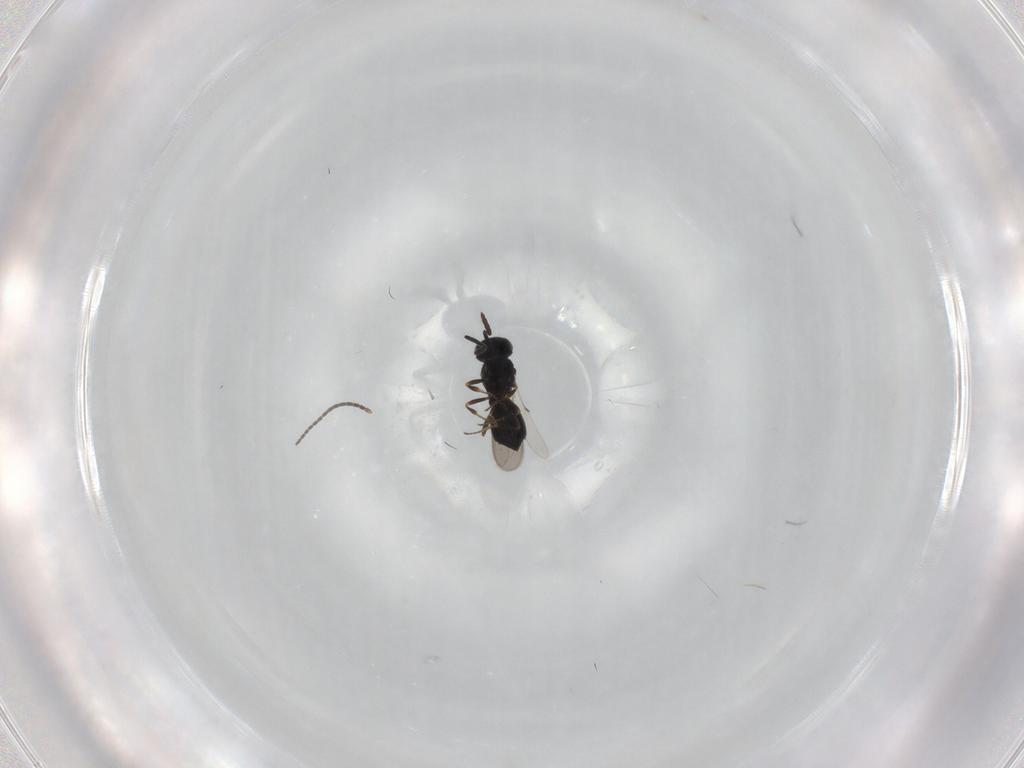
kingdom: Animalia
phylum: Arthropoda
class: Insecta
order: Hymenoptera
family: Scelionidae
